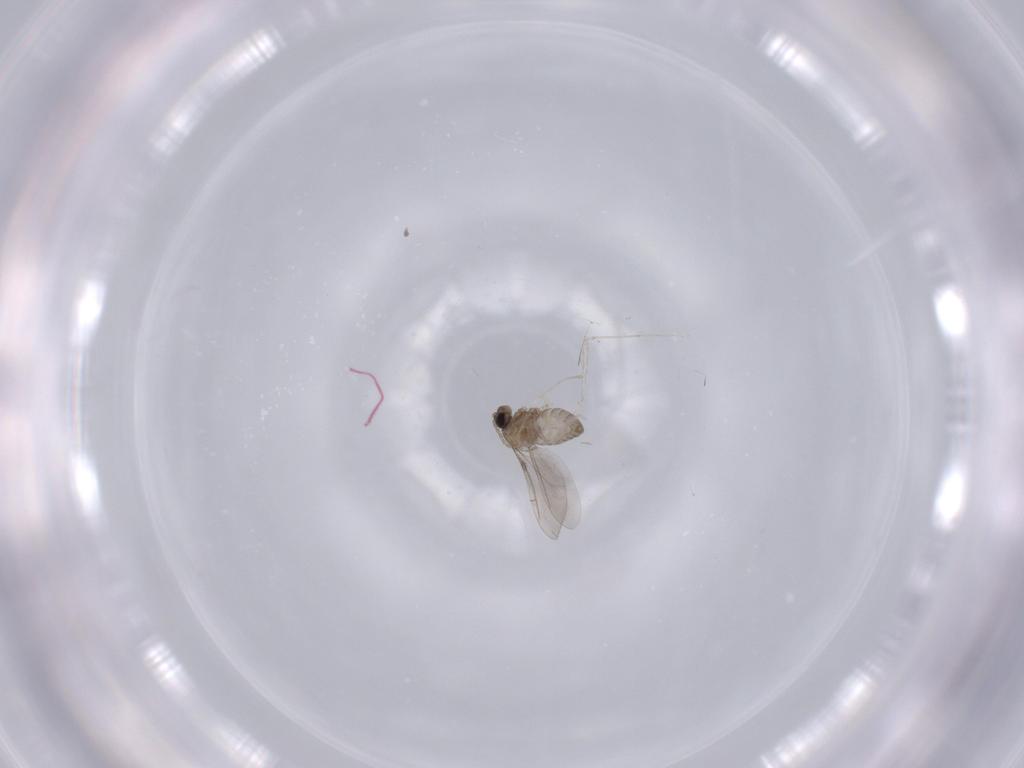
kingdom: Animalia
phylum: Arthropoda
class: Insecta
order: Diptera
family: Cecidomyiidae
